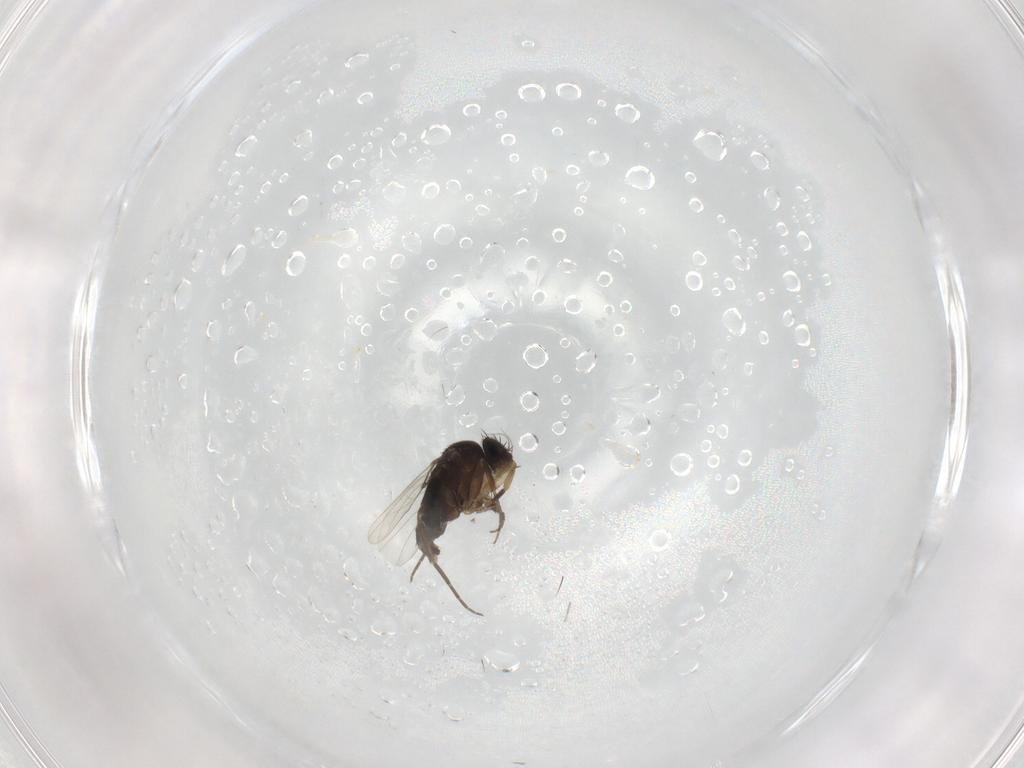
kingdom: Animalia
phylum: Arthropoda
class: Insecta
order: Diptera
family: Phoridae
